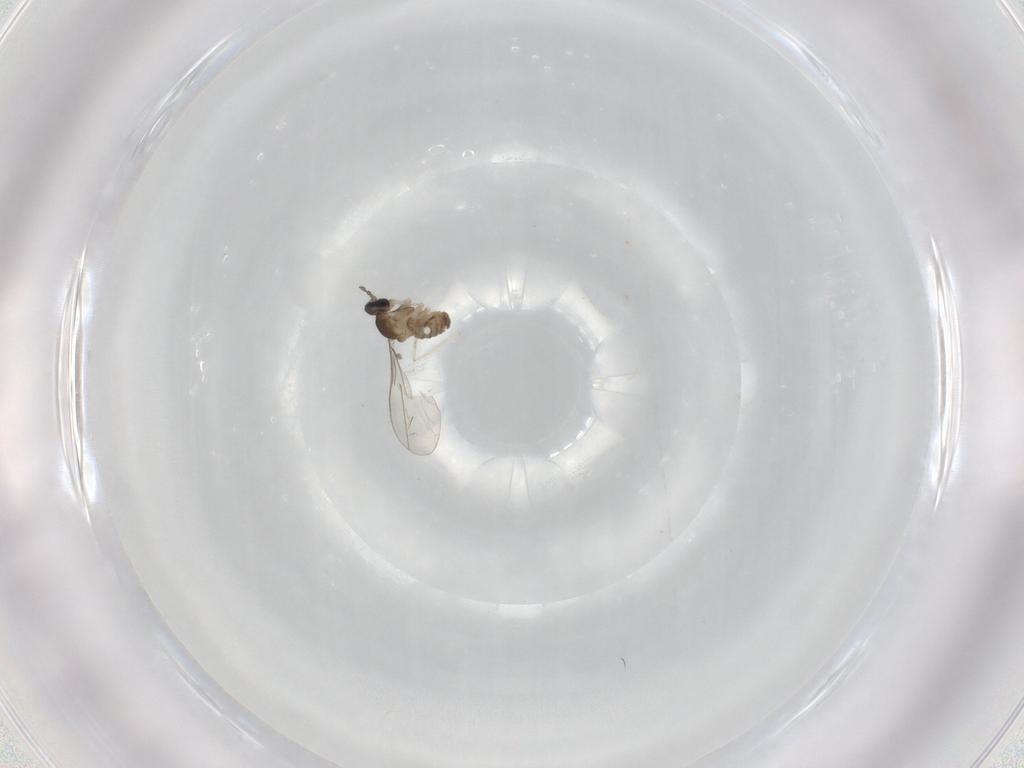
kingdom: Animalia
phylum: Arthropoda
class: Insecta
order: Diptera
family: Cecidomyiidae
